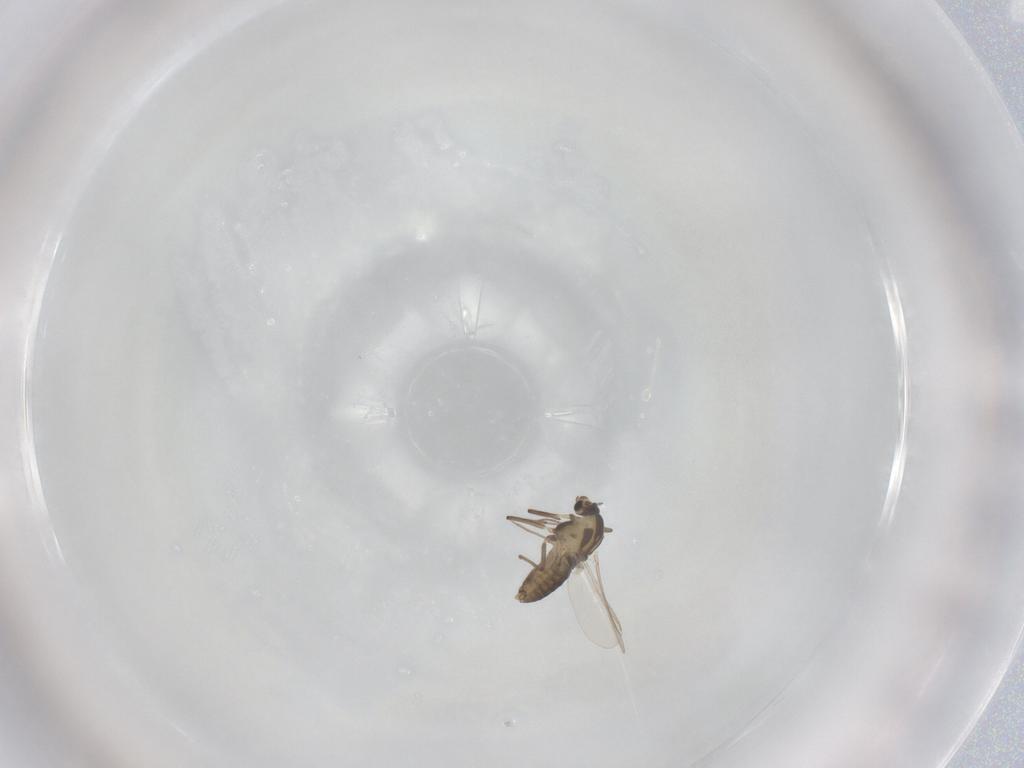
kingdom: Animalia
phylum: Arthropoda
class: Insecta
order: Diptera
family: Chironomidae
